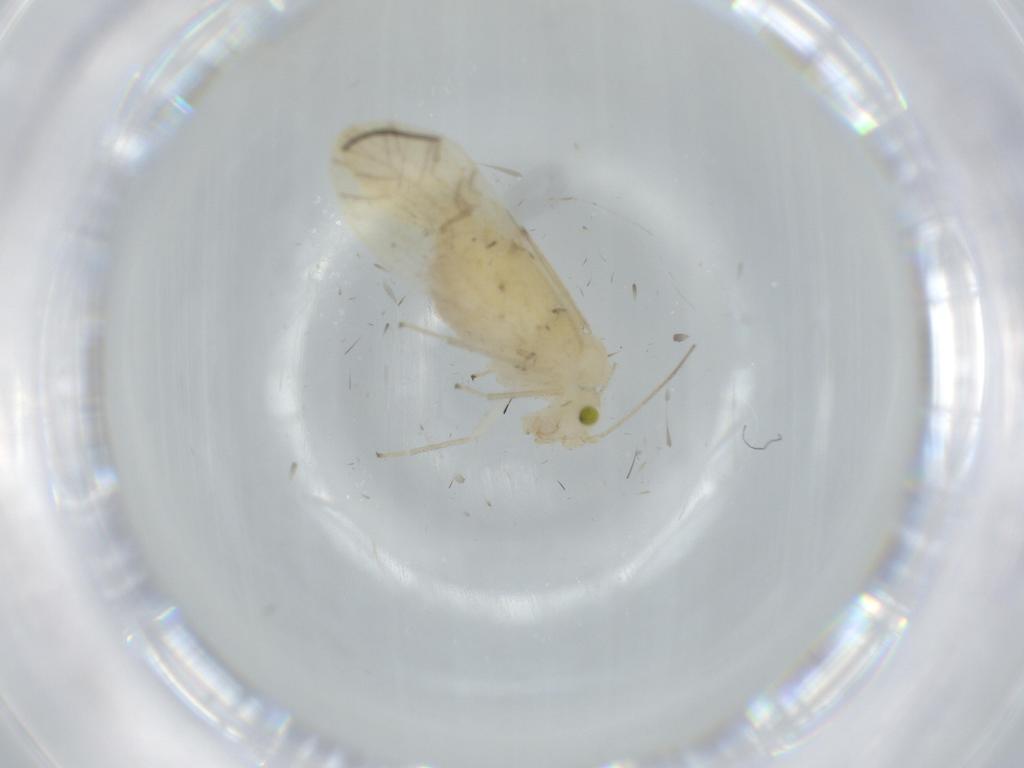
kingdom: Animalia
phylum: Arthropoda
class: Insecta
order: Psocodea
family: Caeciliusidae
